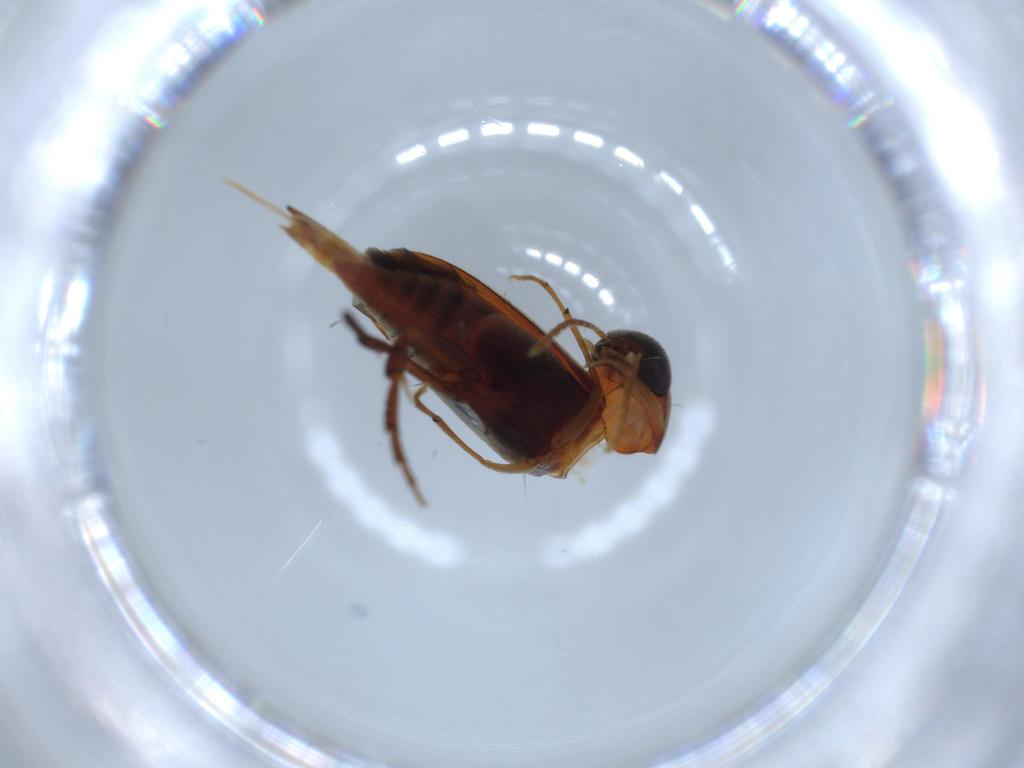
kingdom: Animalia
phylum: Arthropoda
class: Insecta
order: Coleoptera
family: Mordellidae
